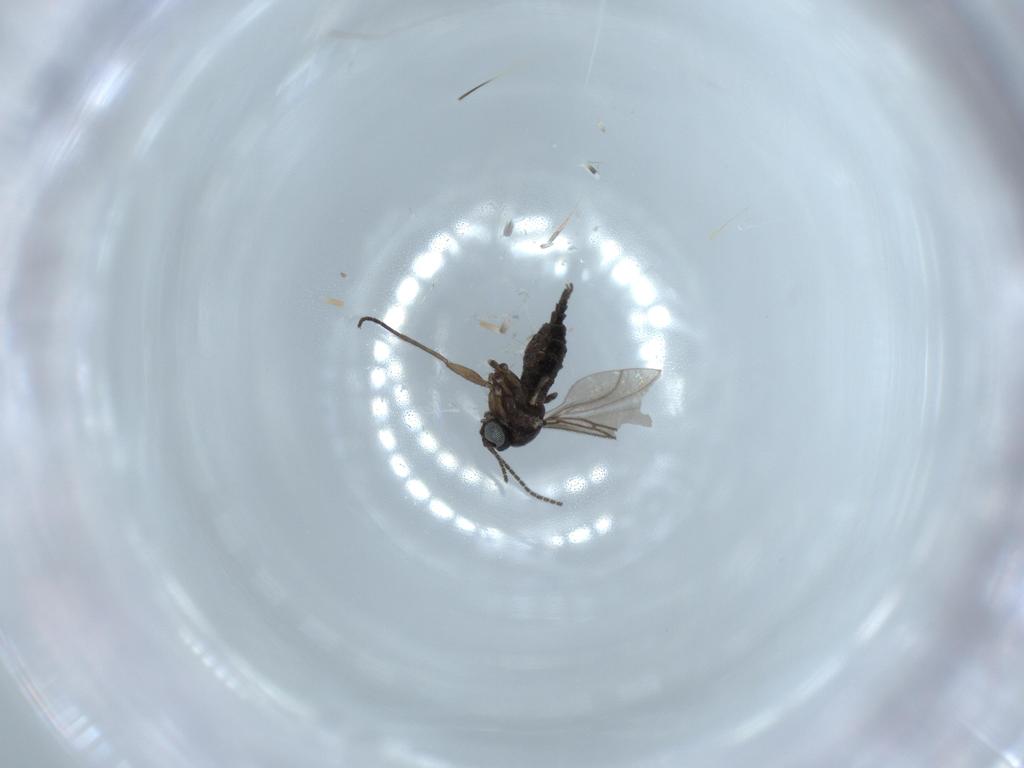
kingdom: Animalia
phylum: Arthropoda
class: Insecta
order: Diptera
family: Sciaridae
